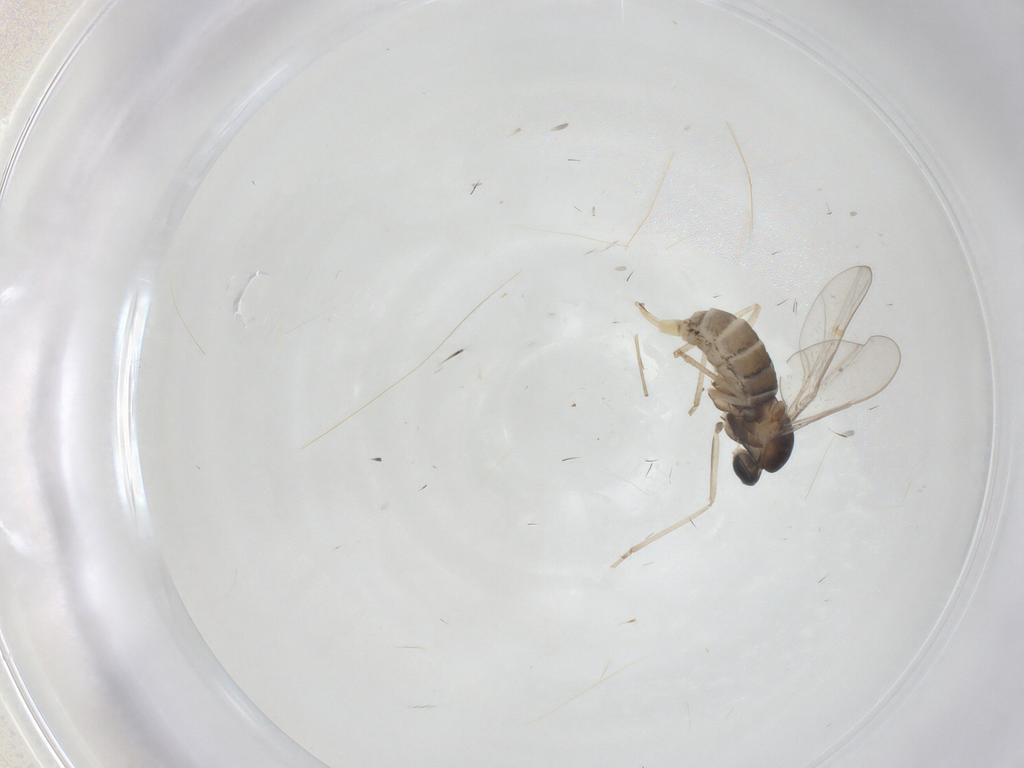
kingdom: Animalia
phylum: Arthropoda
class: Insecta
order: Diptera
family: Cecidomyiidae
